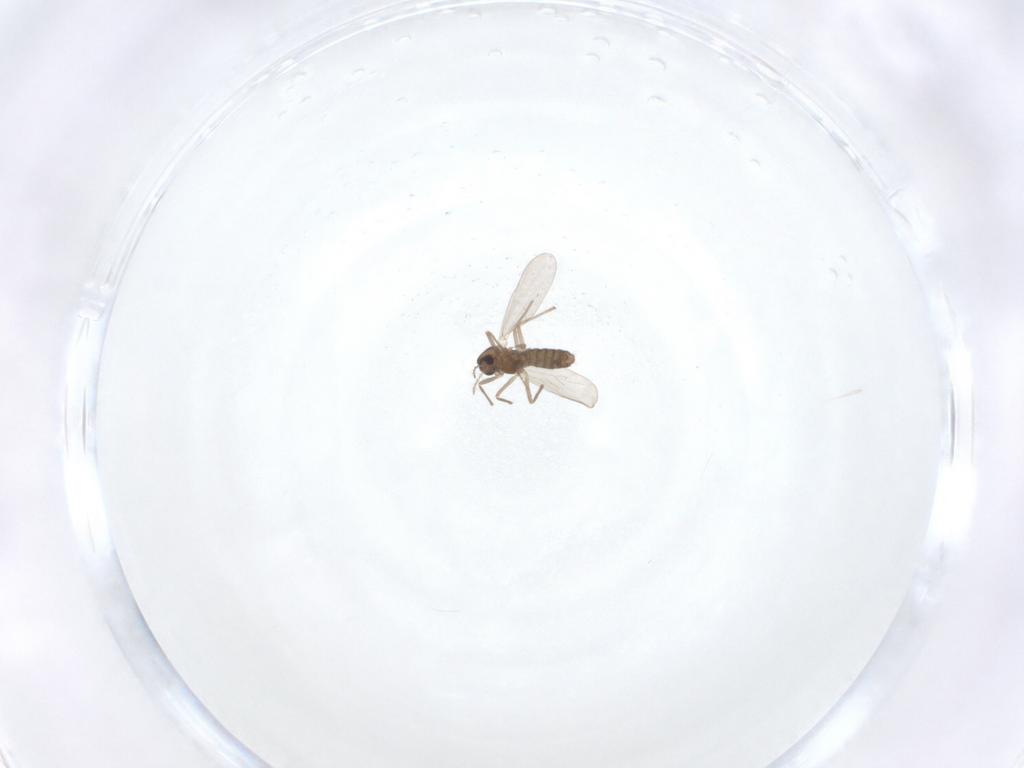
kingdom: Animalia
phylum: Arthropoda
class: Insecta
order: Diptera
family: Chironomidae
